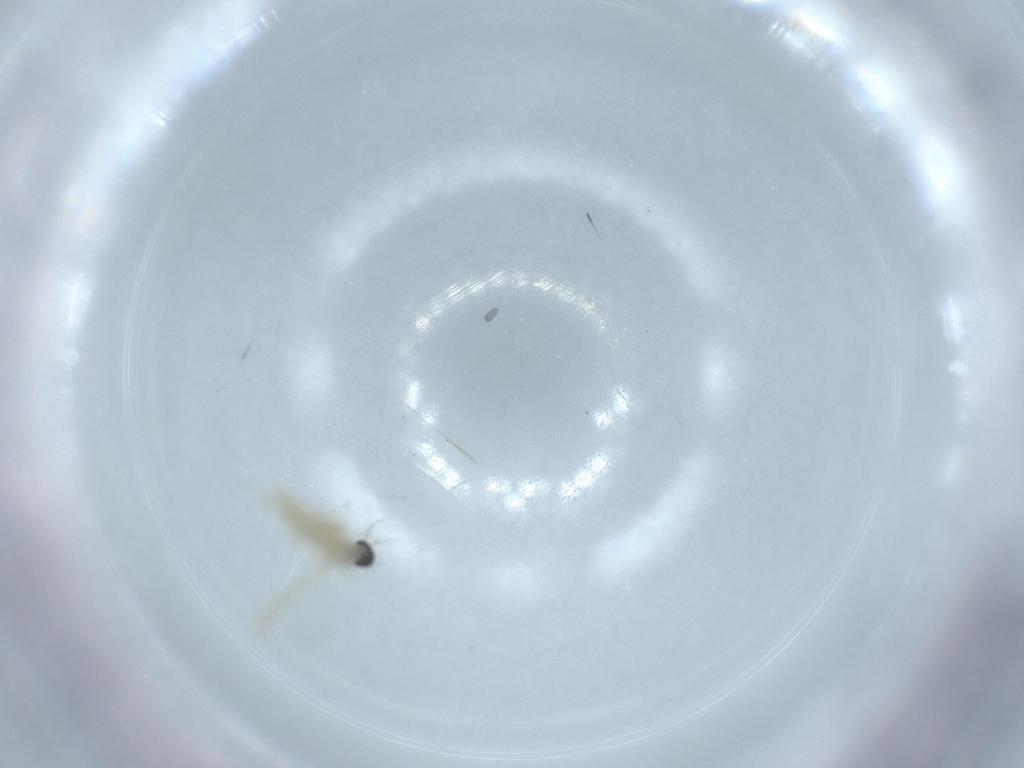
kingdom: Animalia
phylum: Arthropoda
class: Insecta
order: Diptera
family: Cecidomyiidae
